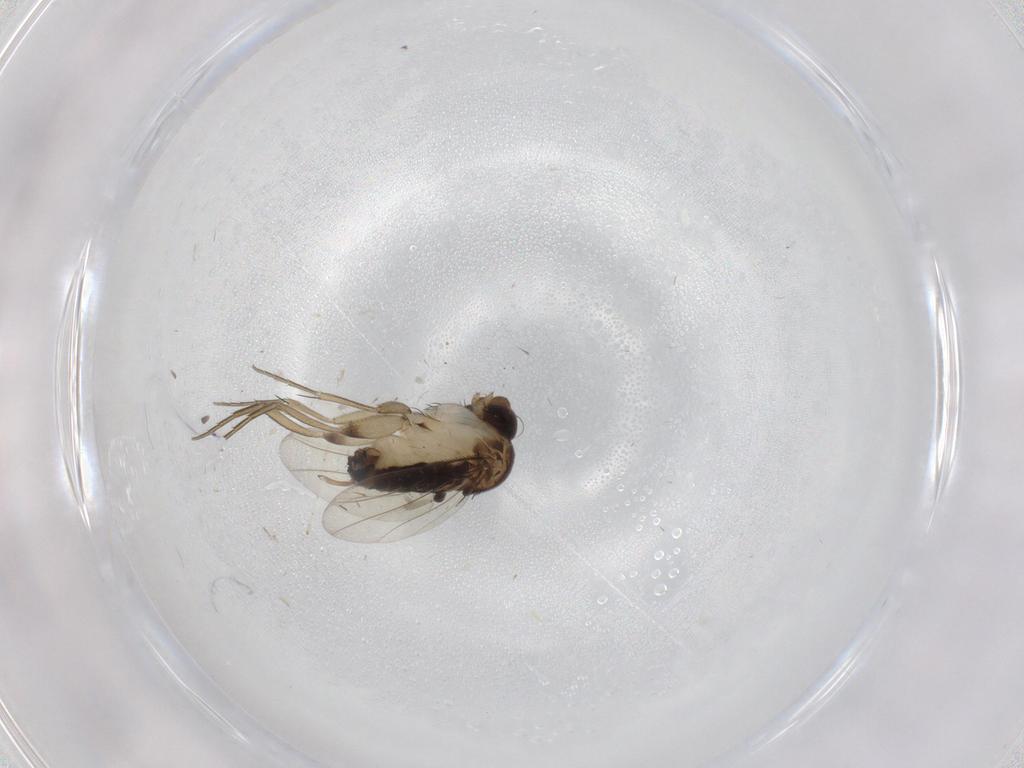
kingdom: Animalia
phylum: Arthropoda
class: Insecta
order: Diptera
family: Phoridae
